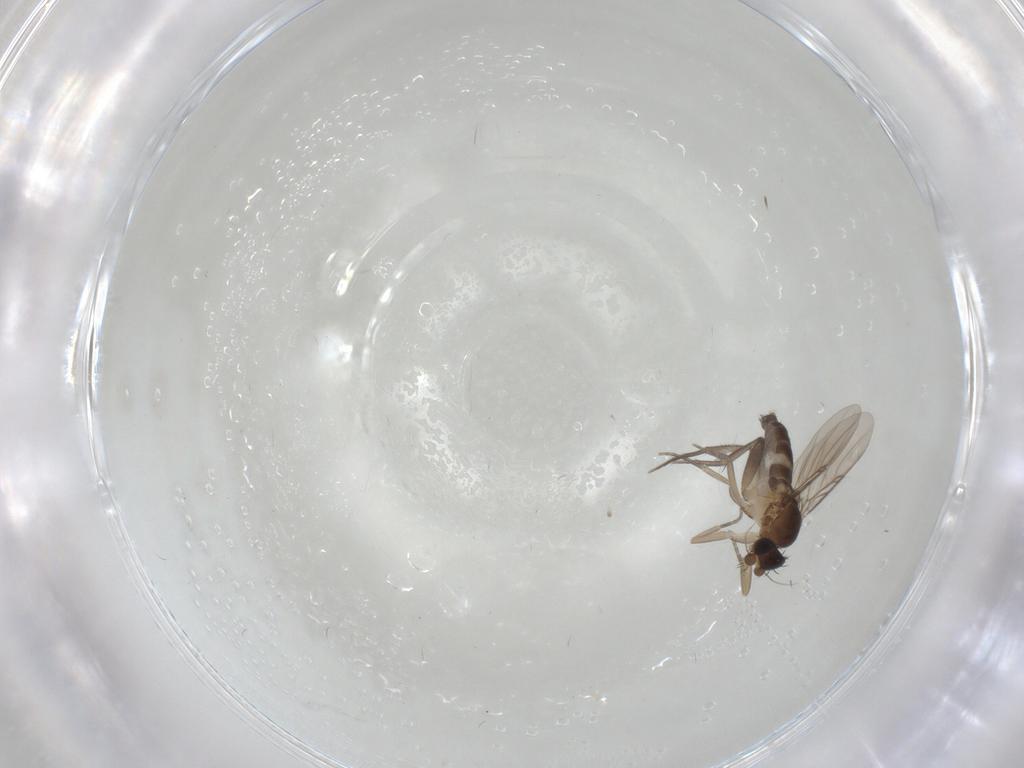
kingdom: Animalia
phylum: Arthropoda
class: Insecta
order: Diptera
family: Phoridae
